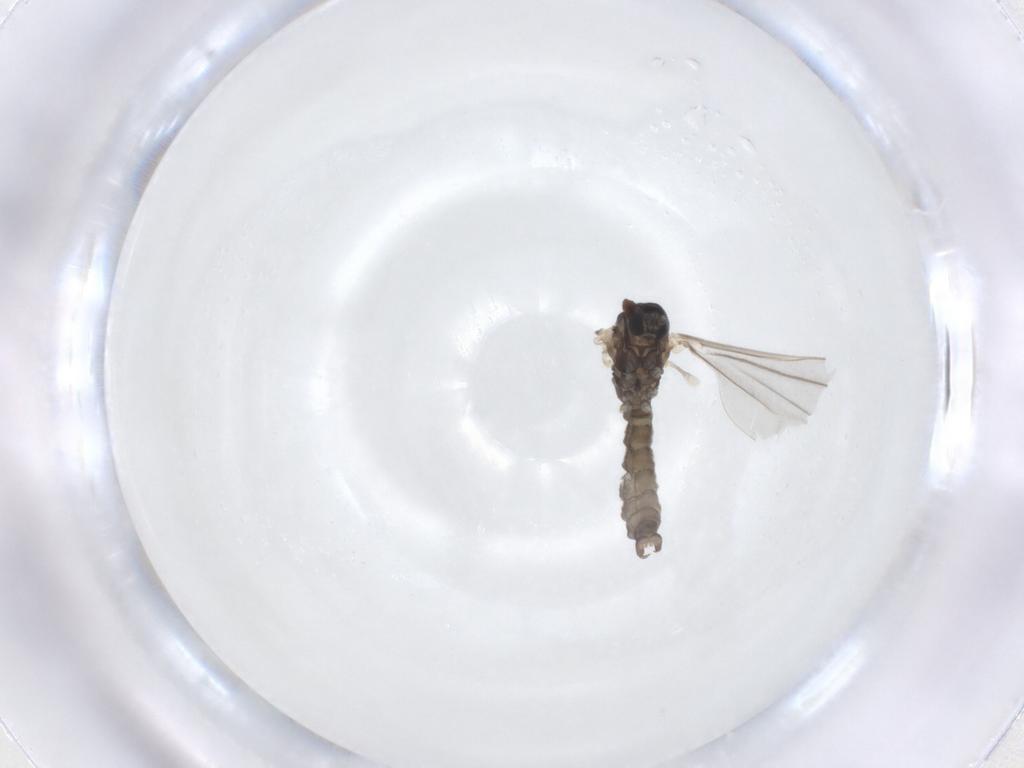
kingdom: Animalia
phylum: Arthropoda
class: Insecta
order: Diptera
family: Cecidomyiidae
